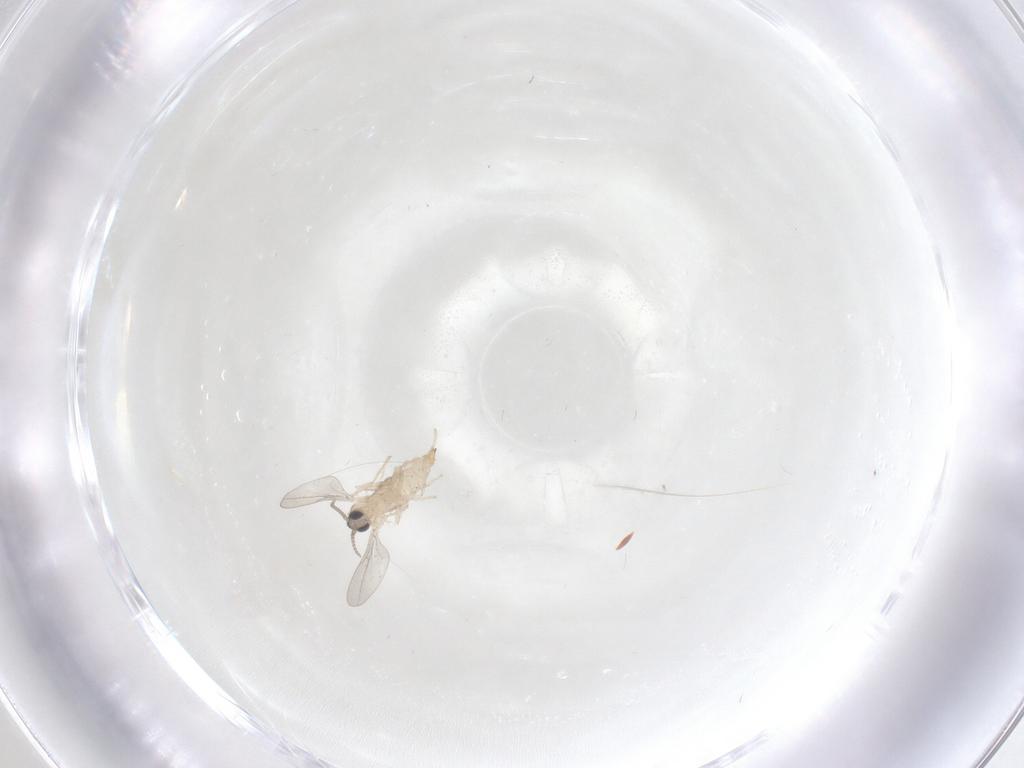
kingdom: Animalia
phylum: Arthropoda
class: Insecta
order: Diptera
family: Cecidomyiidae
